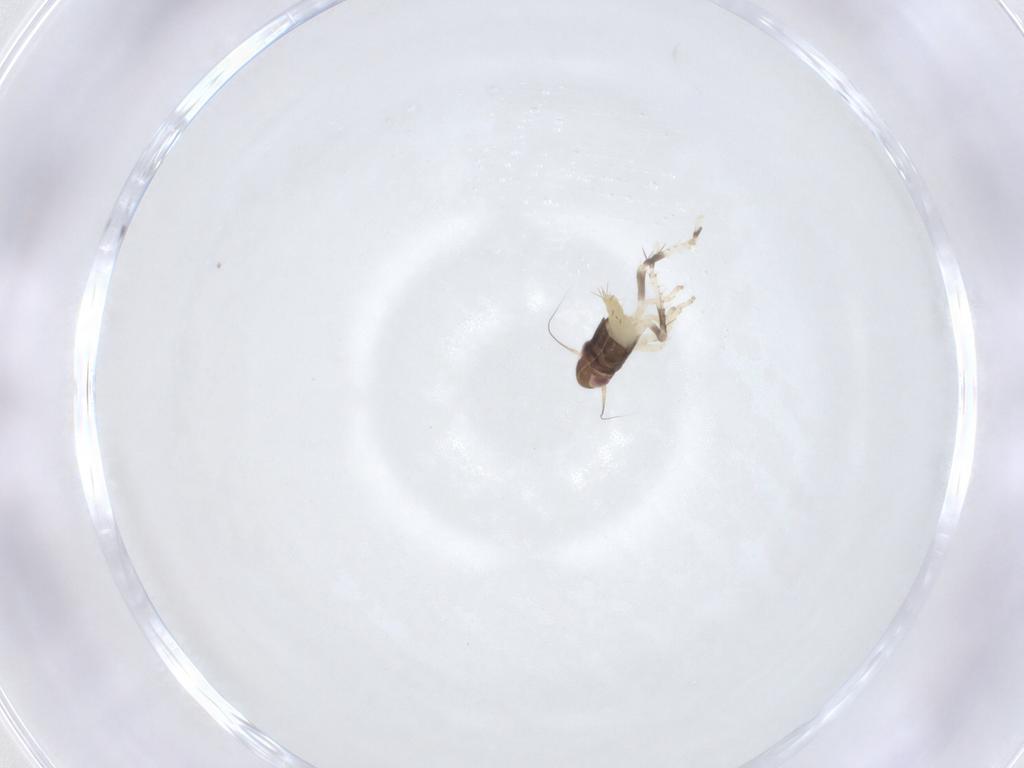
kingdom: Animalia
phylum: Arthropoda
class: Insecta
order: Hemiptera
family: Cicadellidae
